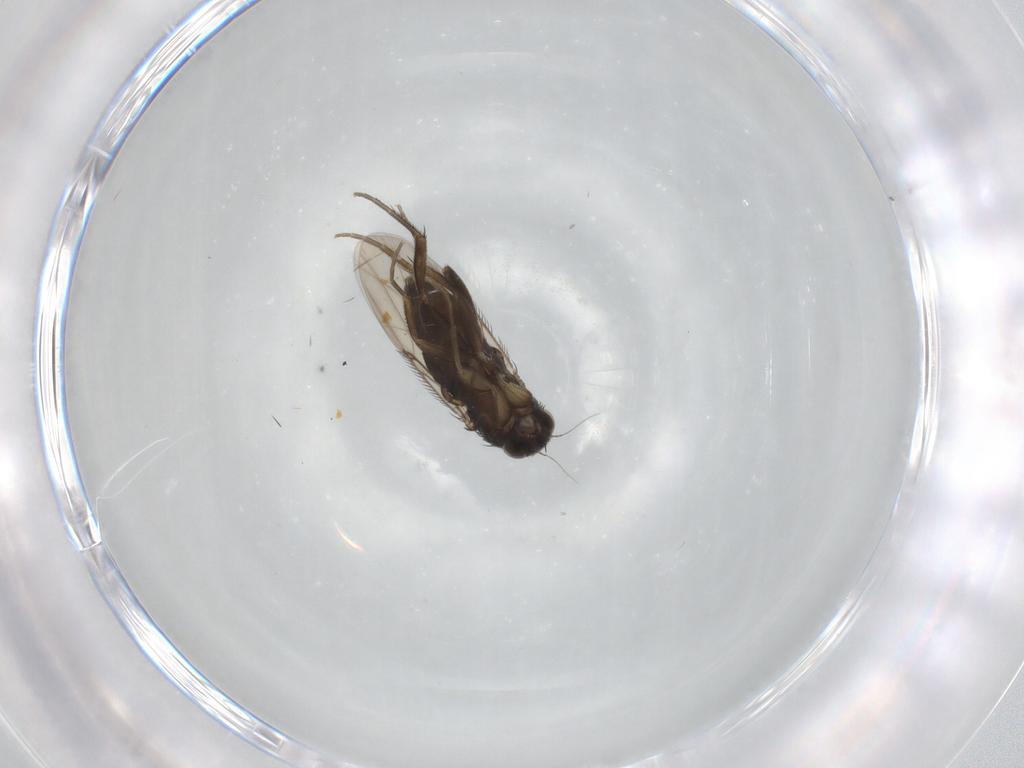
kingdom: Animalia
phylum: Arthropoda
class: Insecta
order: Diptera
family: Phoridae
